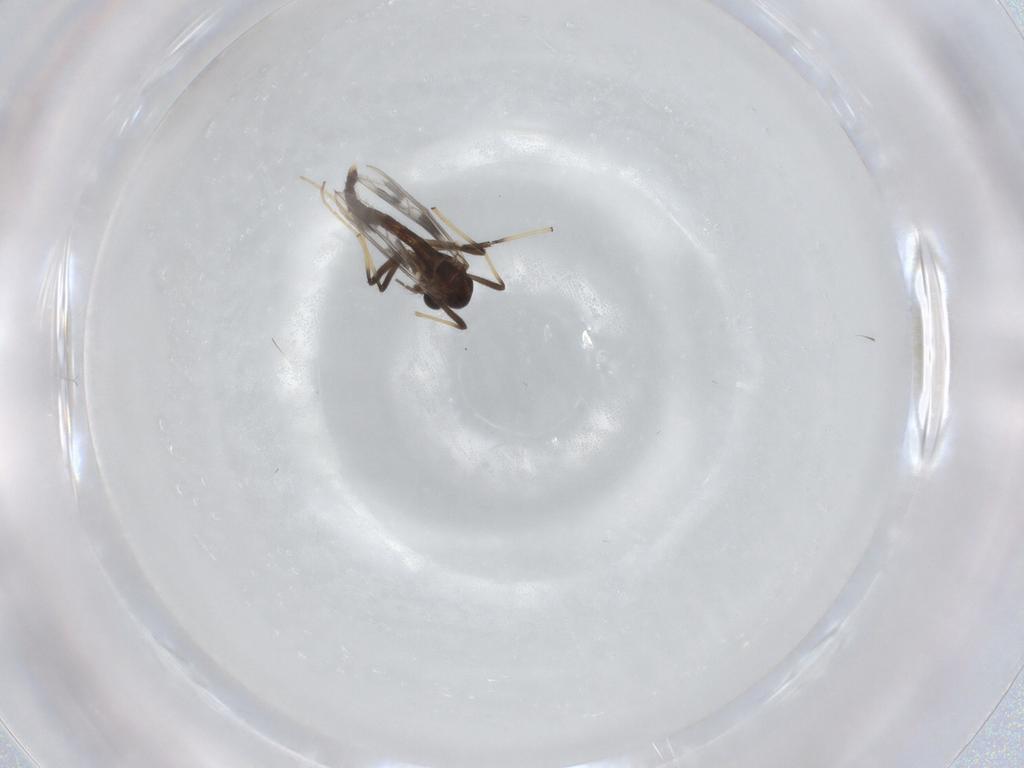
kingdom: Animalia
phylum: Arthropoda
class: Insecta
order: Diptera
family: Chironomidae
